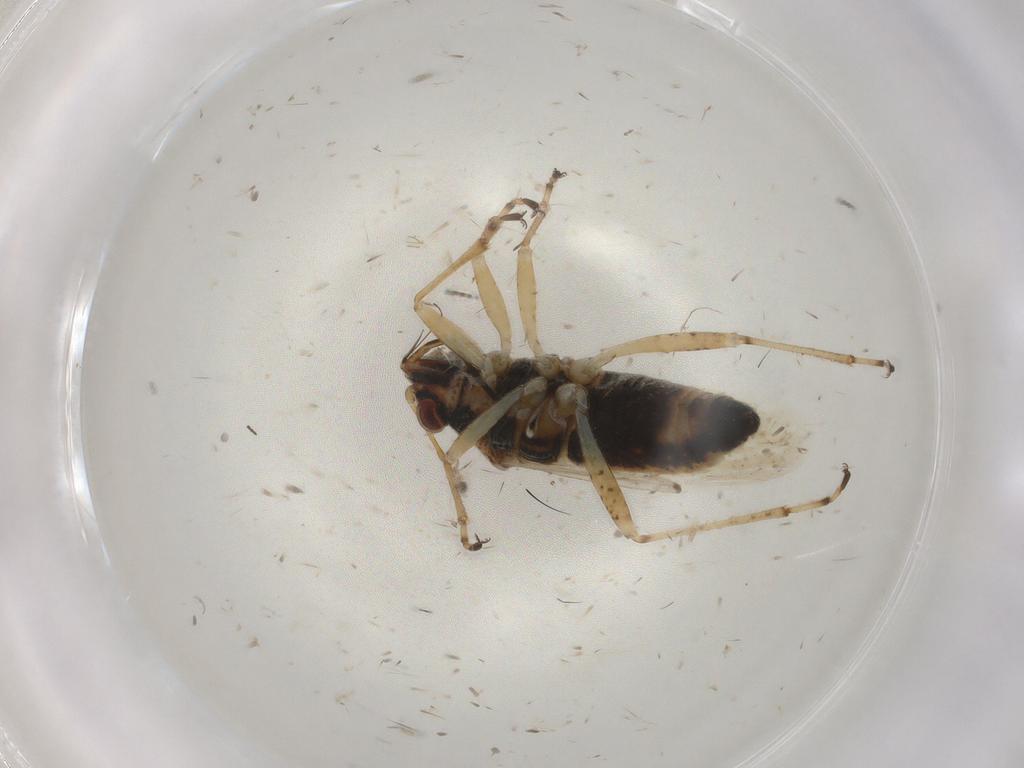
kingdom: Animalia
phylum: Arthropoda
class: Insecta
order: Hemiptera
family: Lygaeidae
